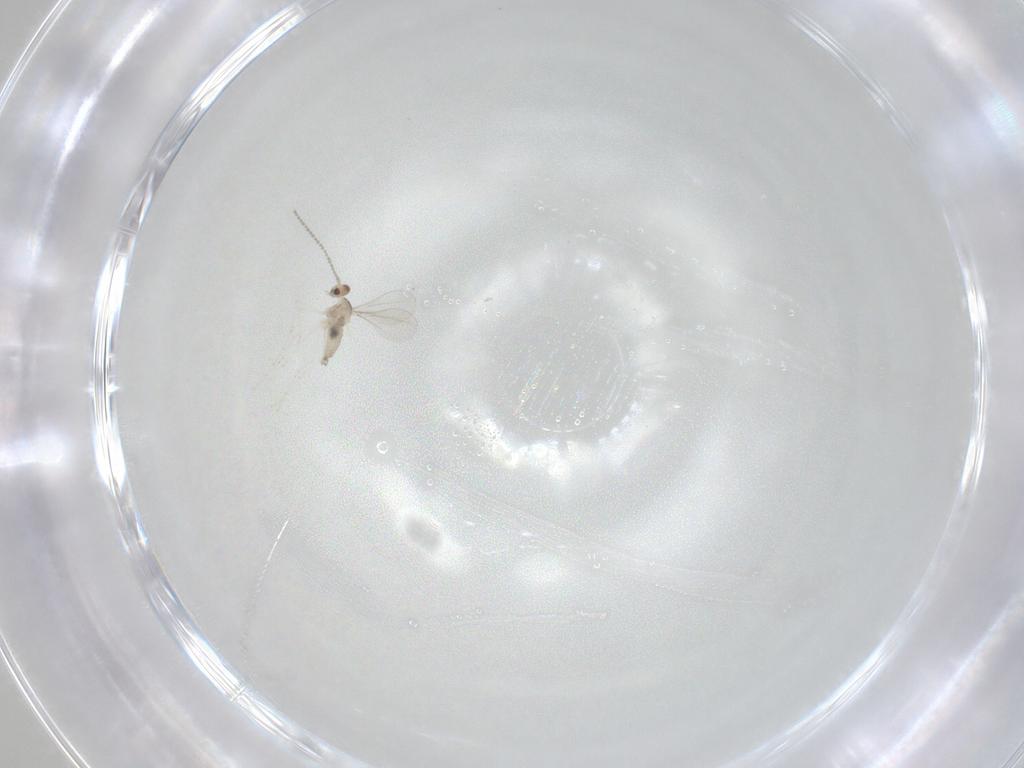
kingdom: Animalia
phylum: Arthropoda
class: Insecta
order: Diptera
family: Cecidomyiidae
